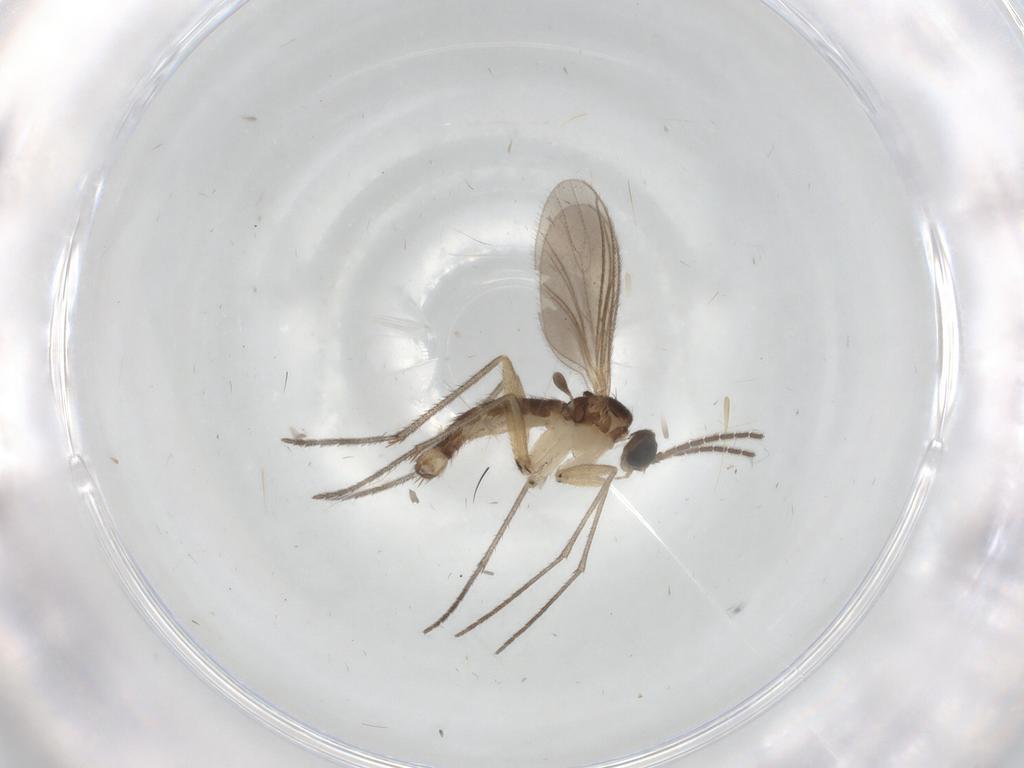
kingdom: Animalia
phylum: Arthropoda
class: Insecta
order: Diptera
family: Sciaridae
